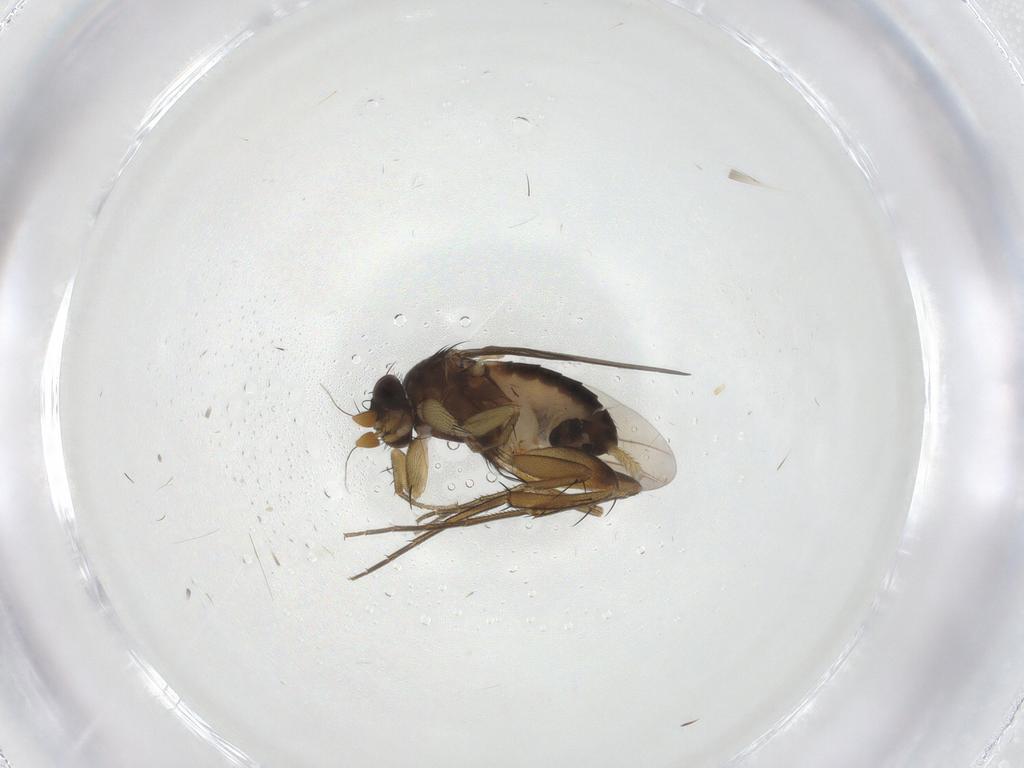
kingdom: Animalia
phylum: Arthropoda
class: Insecta
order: Diptera
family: Phoridae
